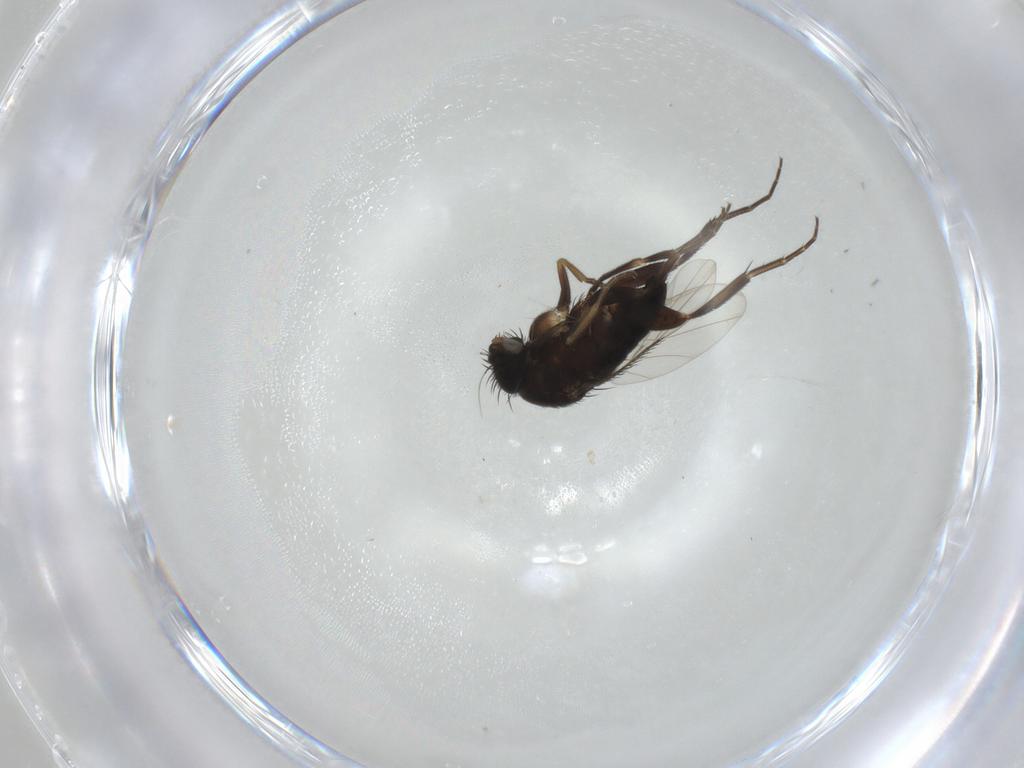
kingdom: Animalia
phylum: Arthropoda
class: Insecta
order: Diptera
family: Phoridae
